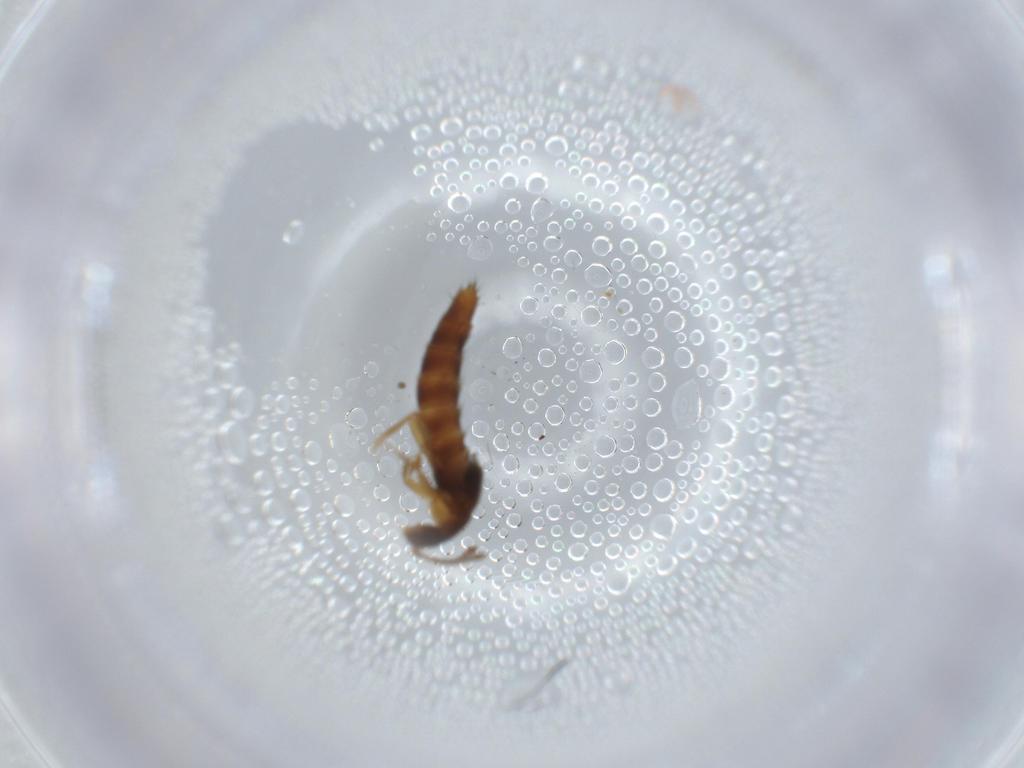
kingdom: Animalia
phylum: Arthropoda
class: Insecta
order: Coleoptera
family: Staphylinidae
